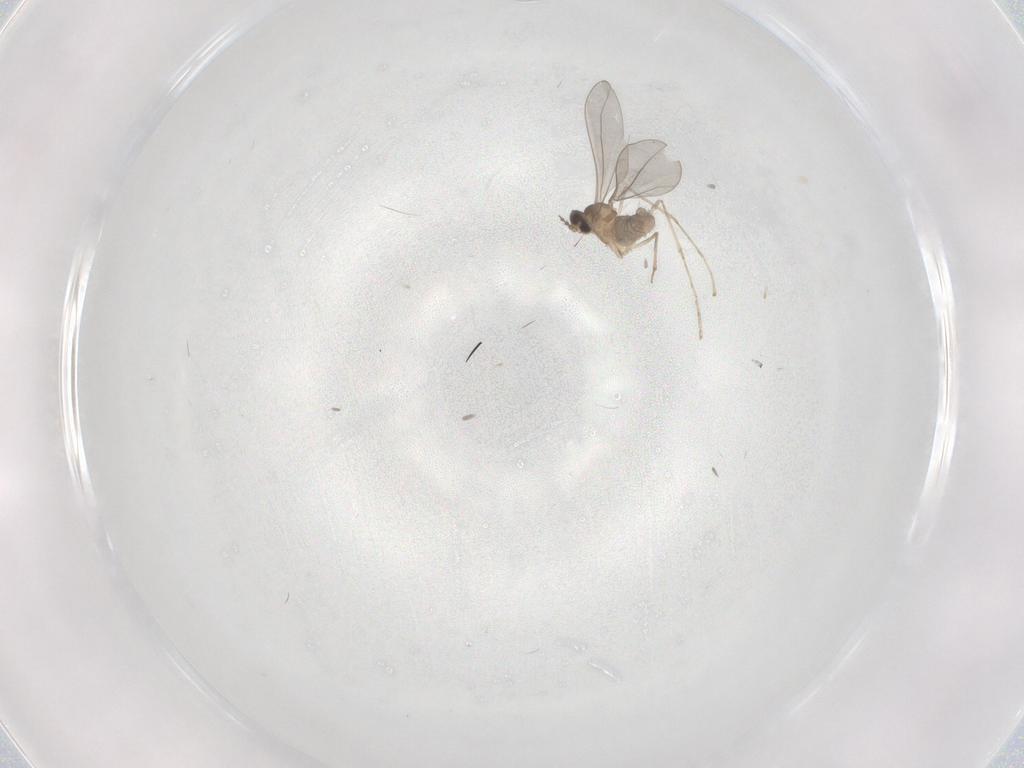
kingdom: Animalia
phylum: Arthropoda
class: Insecta
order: Diptera
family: Cecidomyiidae
